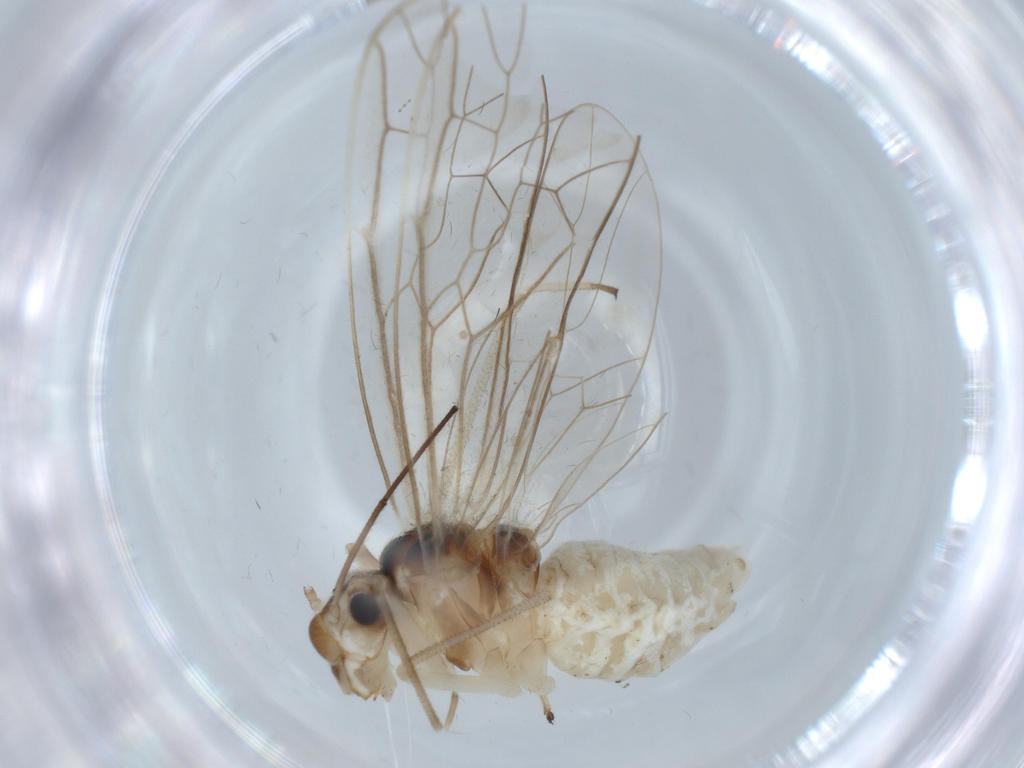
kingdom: Animalia
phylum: Arthropoda
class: Insecta
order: Psocodea
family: Stenopsocidae
